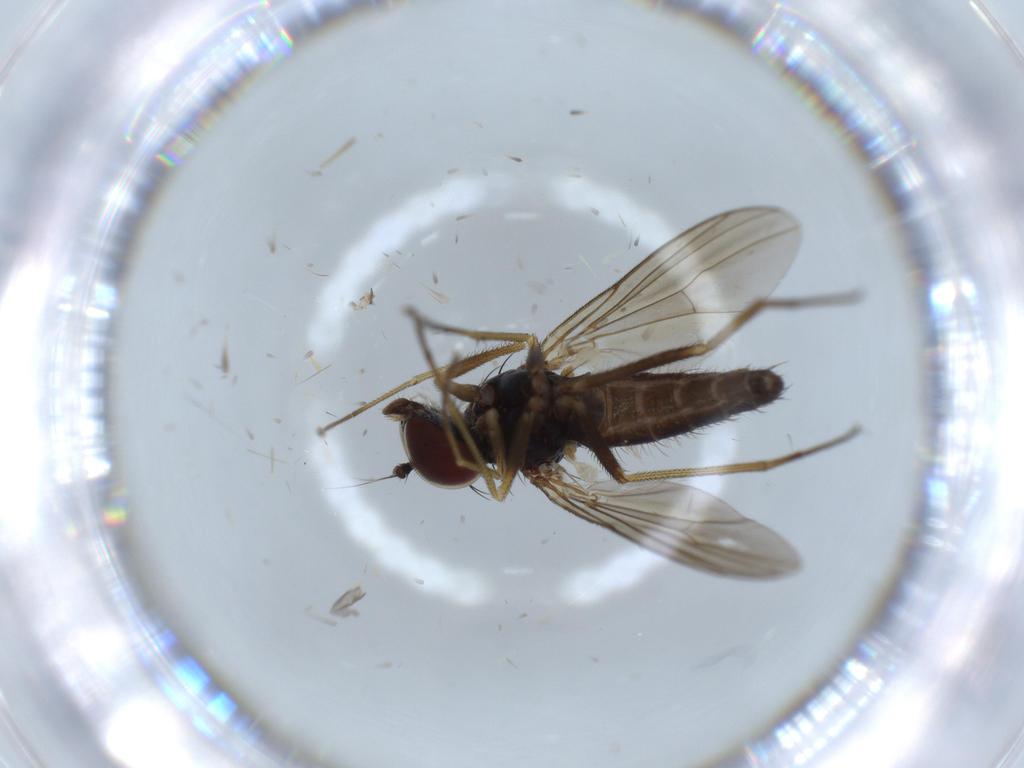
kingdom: Animalia
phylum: Arthropoda
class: Insecta
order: Diptera
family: Dolichopodidae
